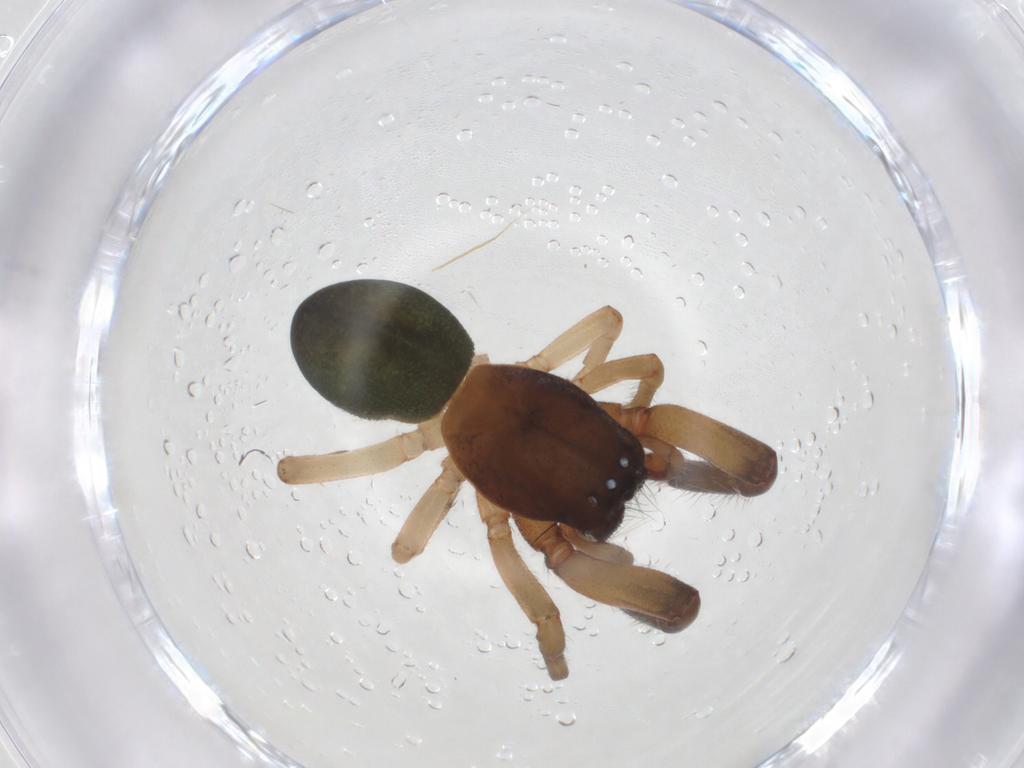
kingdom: Animalia
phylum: Arthropoda
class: Arachnida
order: Araneae
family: Trachelidae
